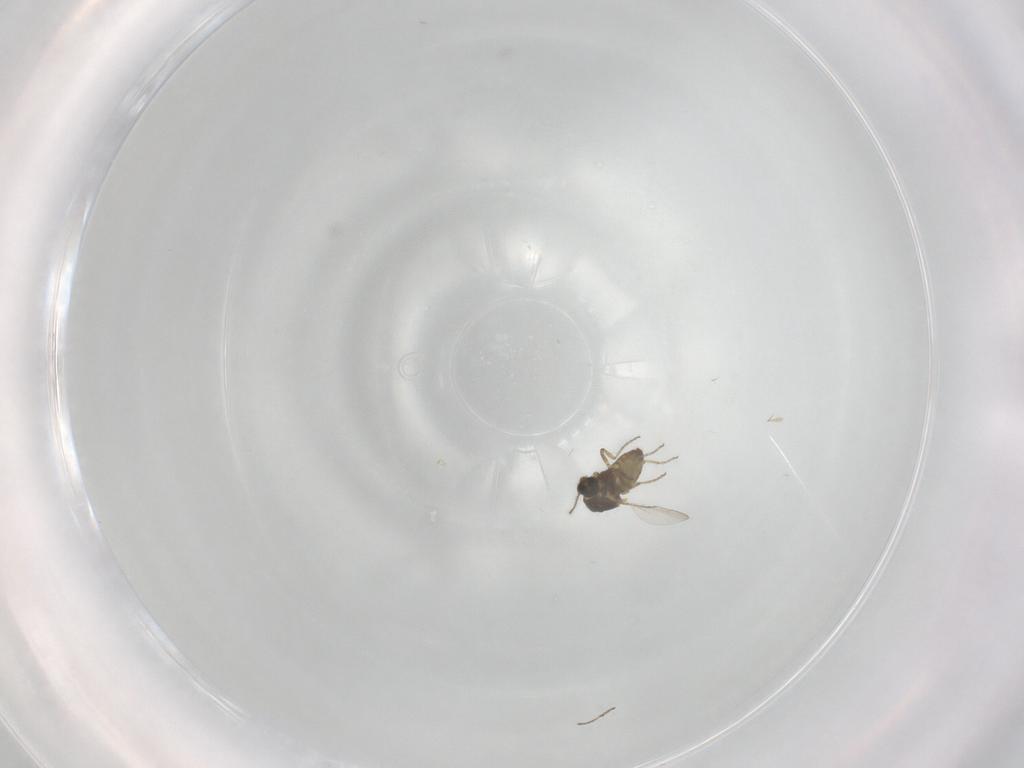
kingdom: Animalia
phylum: Arthropoda
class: Insecta
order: Diptera
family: Ceratopogonidae
